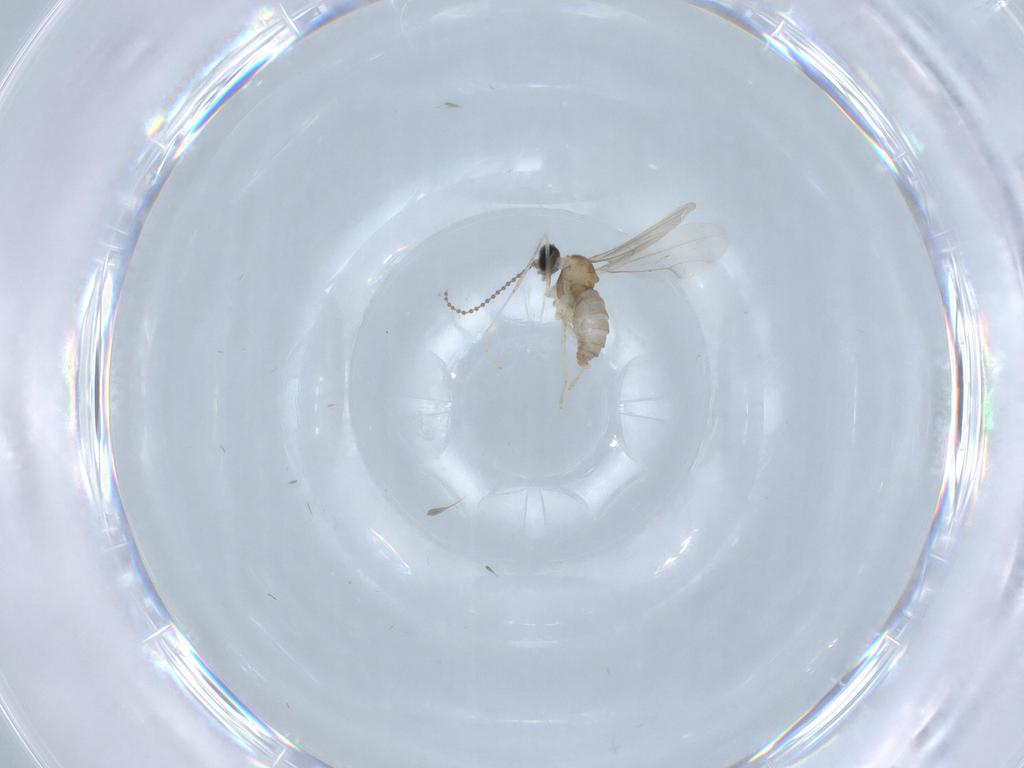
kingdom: Animalia
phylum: Arthropoda
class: Insecta
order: Diptera
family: Cecidomyiidae
